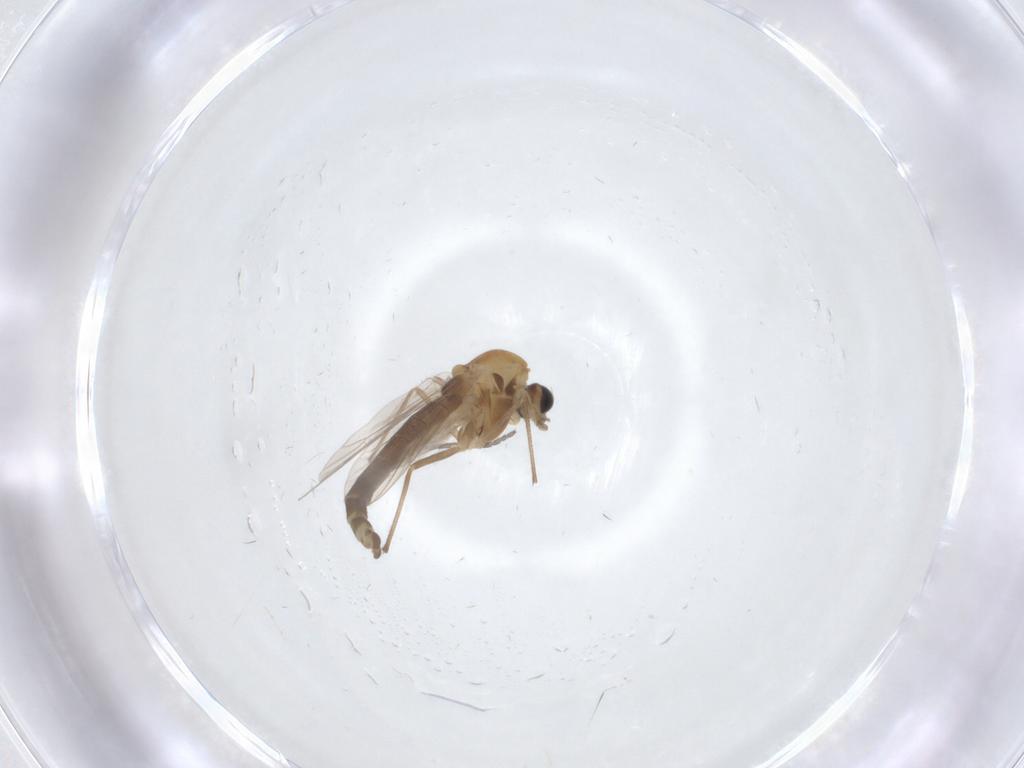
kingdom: Animalia
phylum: Arthropoda
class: Insecta
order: Diptera
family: Chironomidae
